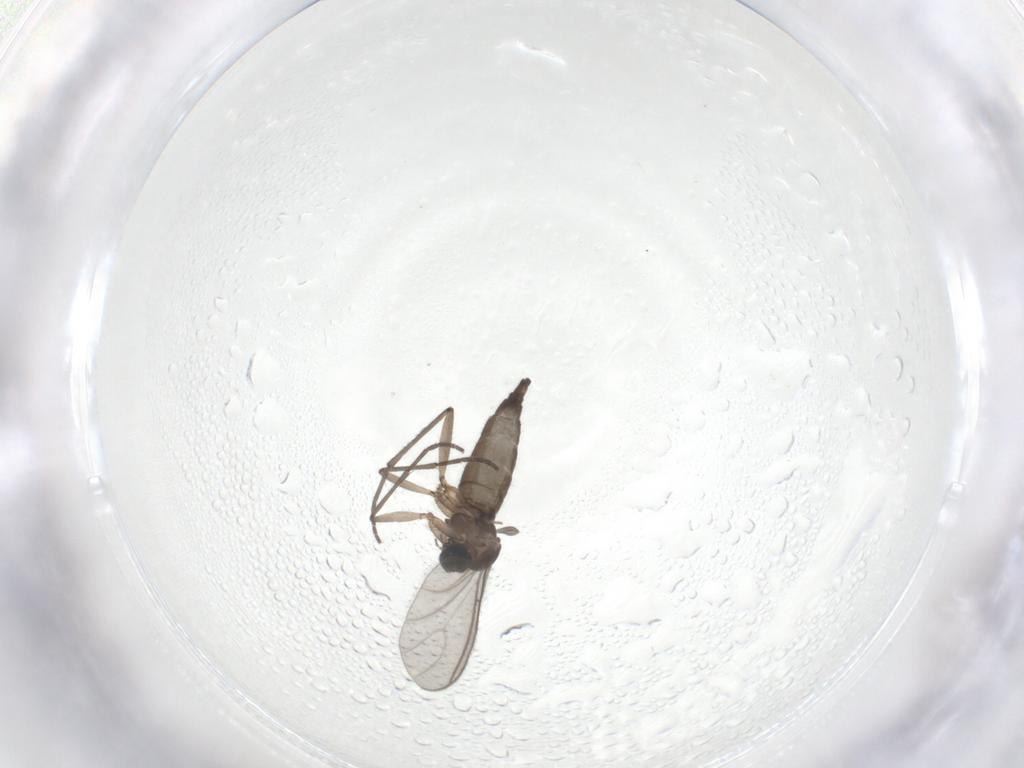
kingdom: Animalia
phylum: Arthropoda
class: Insecta
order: Diptera
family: Sciaridae
